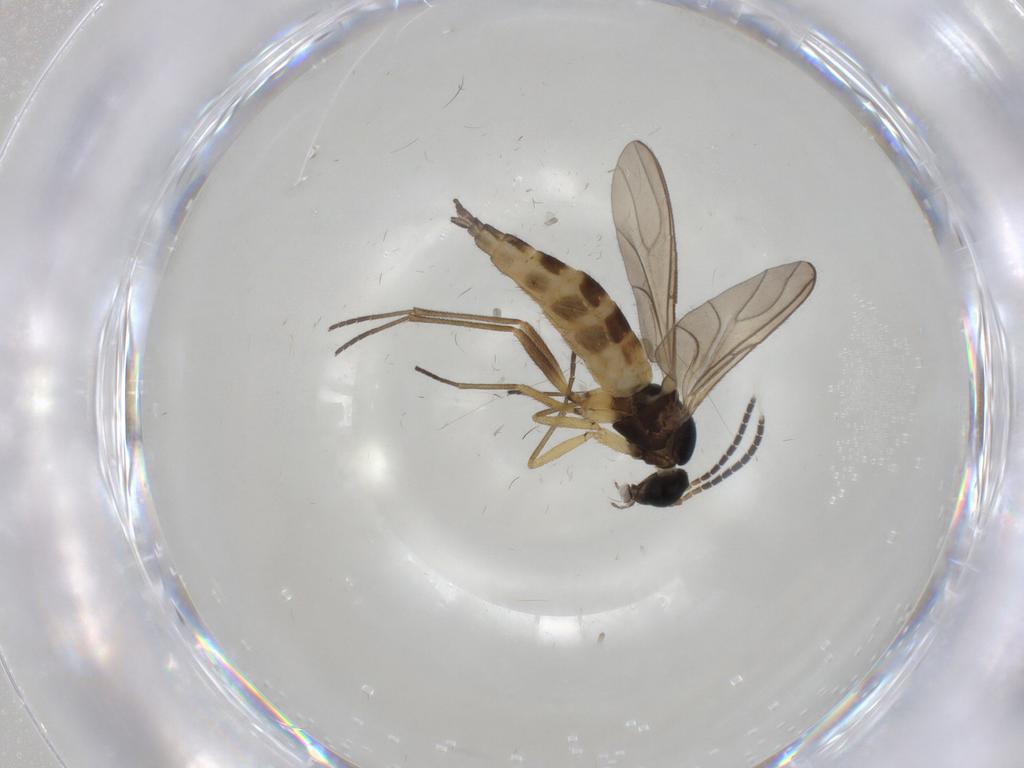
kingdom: Animalia
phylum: Arthropoda
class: Insecta
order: Diptera
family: Sciaridae
